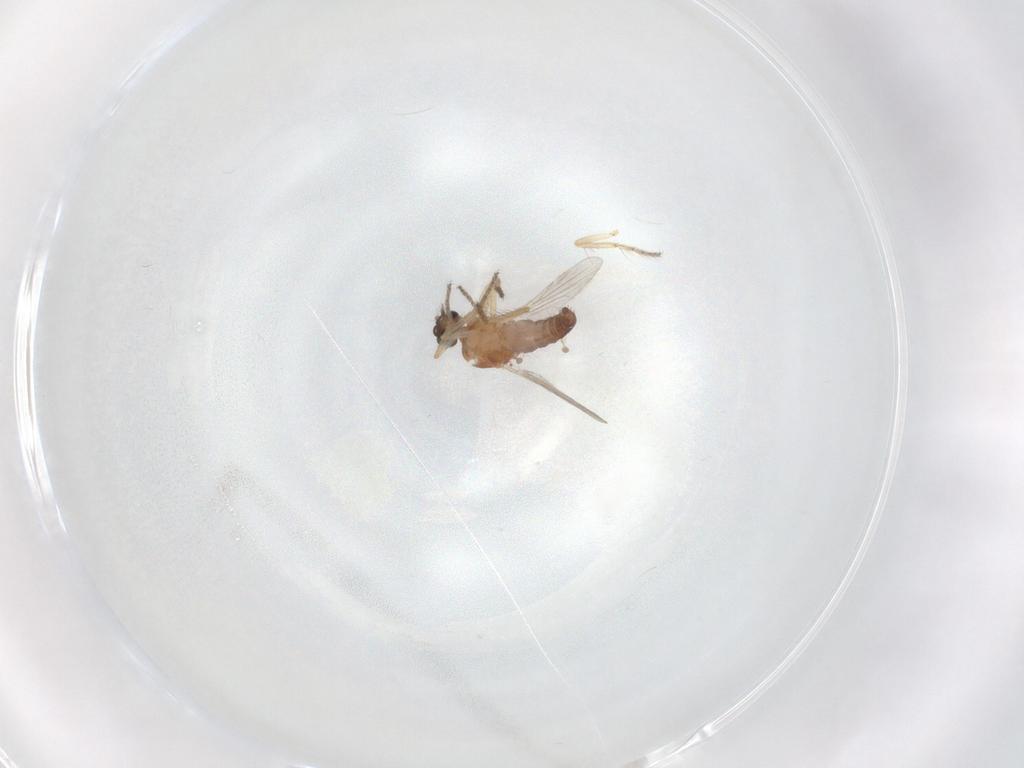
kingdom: Animalia
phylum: Arthropoda
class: Insecta
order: Diptera
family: Ceratopogonidae
